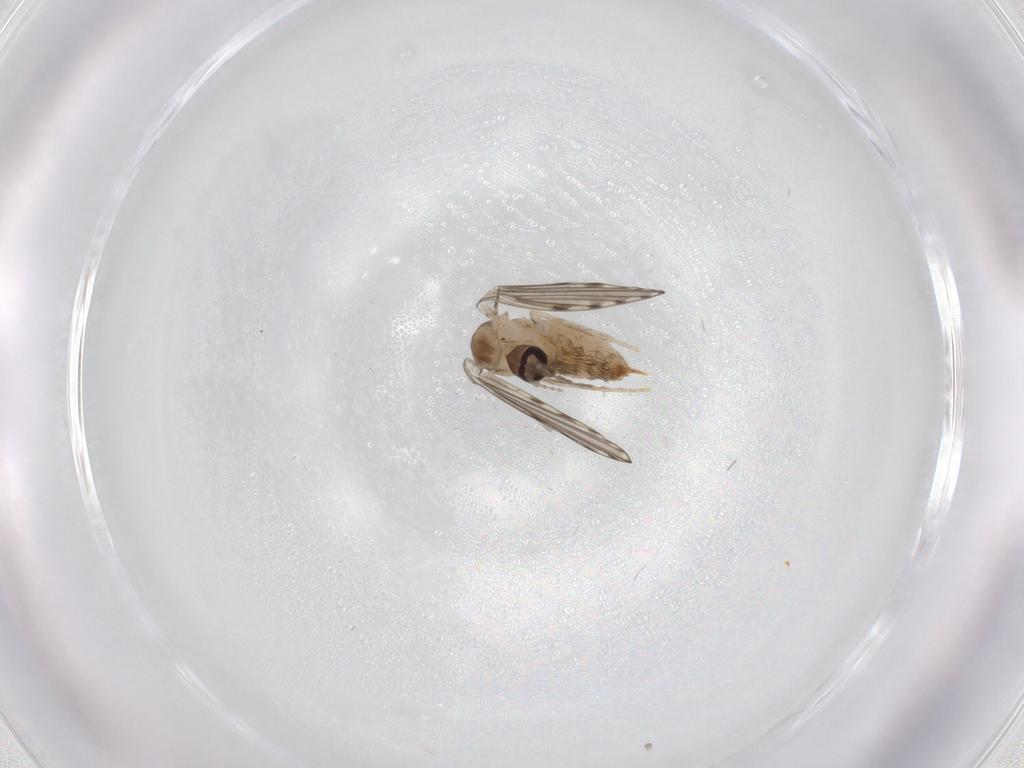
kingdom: Animalia
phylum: Arthropoda
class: Insecta
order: Diptera
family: Psychodidae
